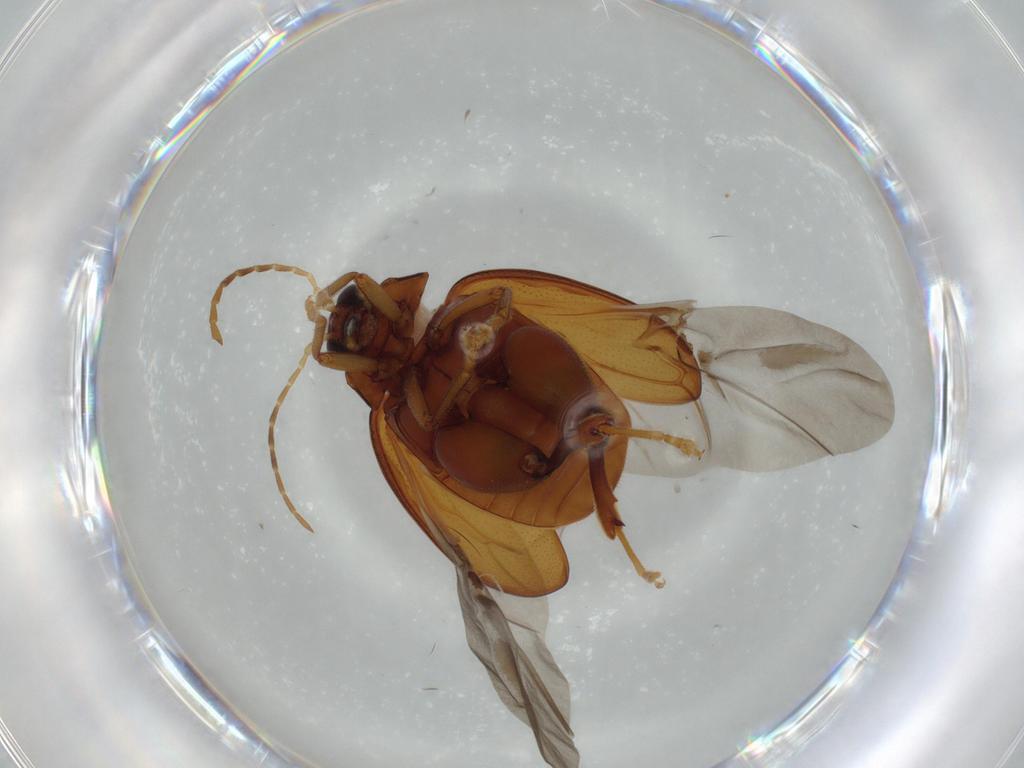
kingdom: Animalia
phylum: Arthropoda
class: Insecta
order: Coleoptera
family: Chrysomelidae
